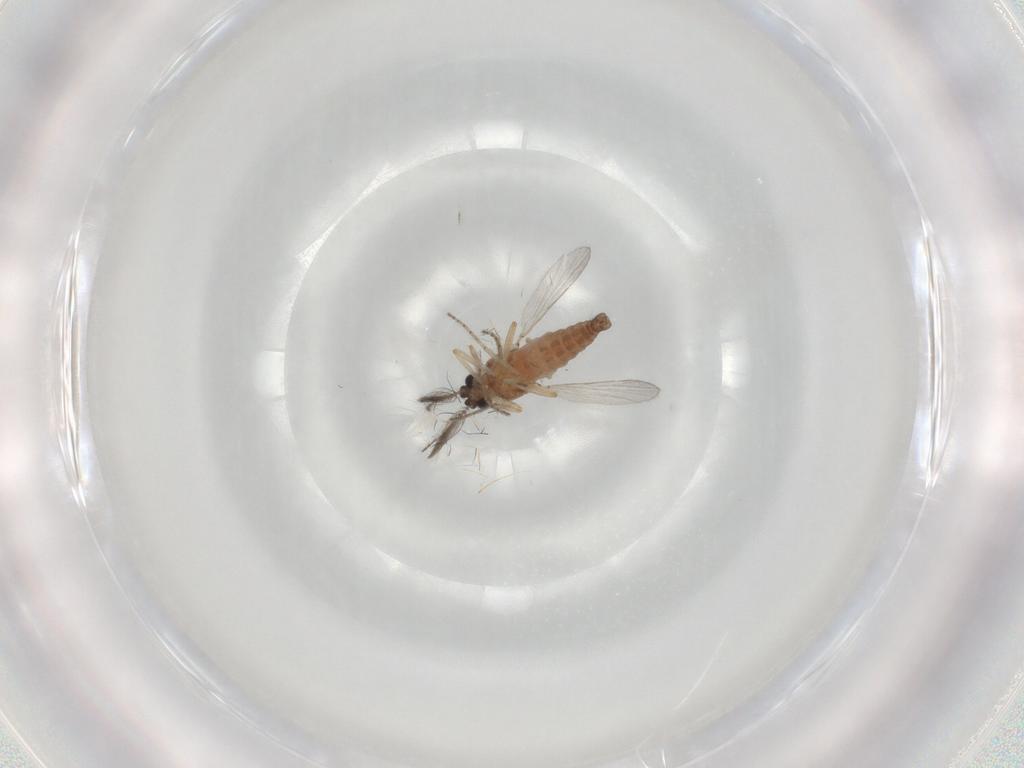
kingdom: Animalia
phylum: Arthropoda
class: Insecta
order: Diptera
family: Ceratopogonidae
